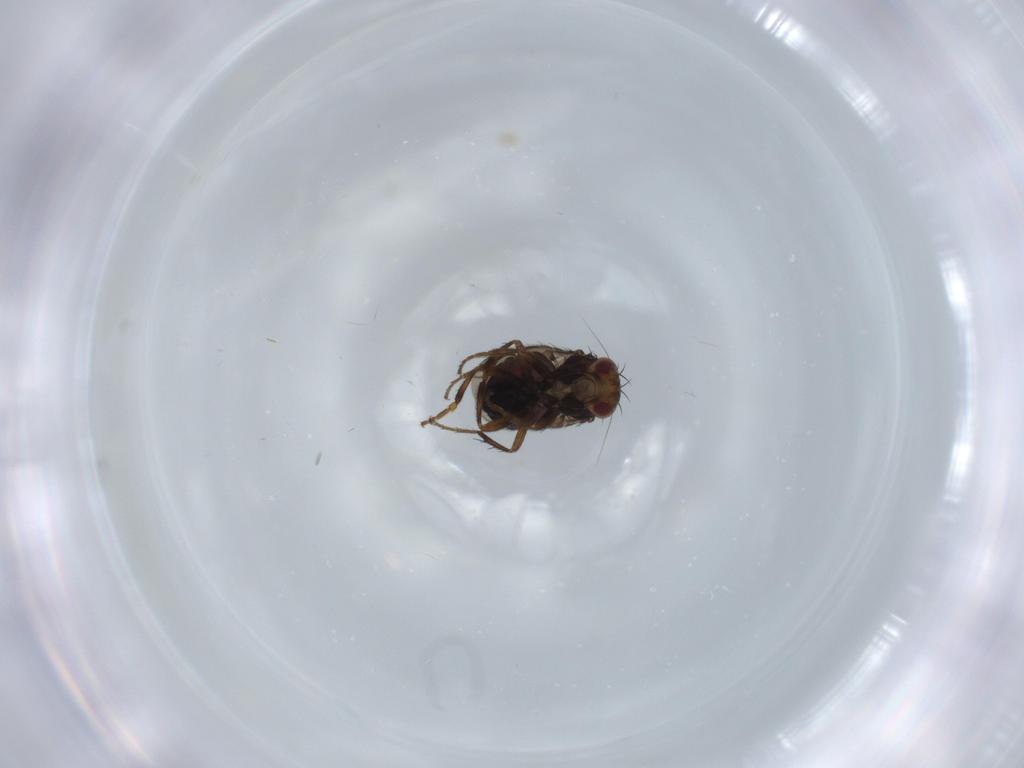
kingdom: Animalia
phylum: Arthropoda
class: Insecta
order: Diptera
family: Sphaeroceridae
